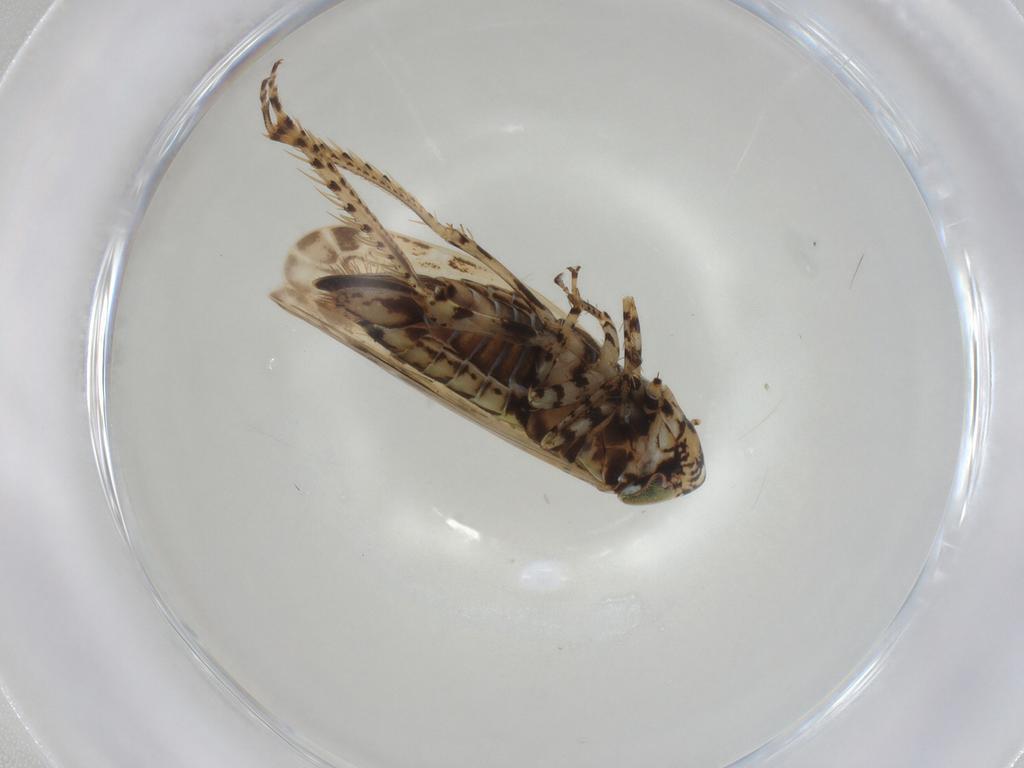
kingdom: Animalia
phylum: Arthropoda
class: Insecta
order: Hemiptera
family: Cicadellidae
